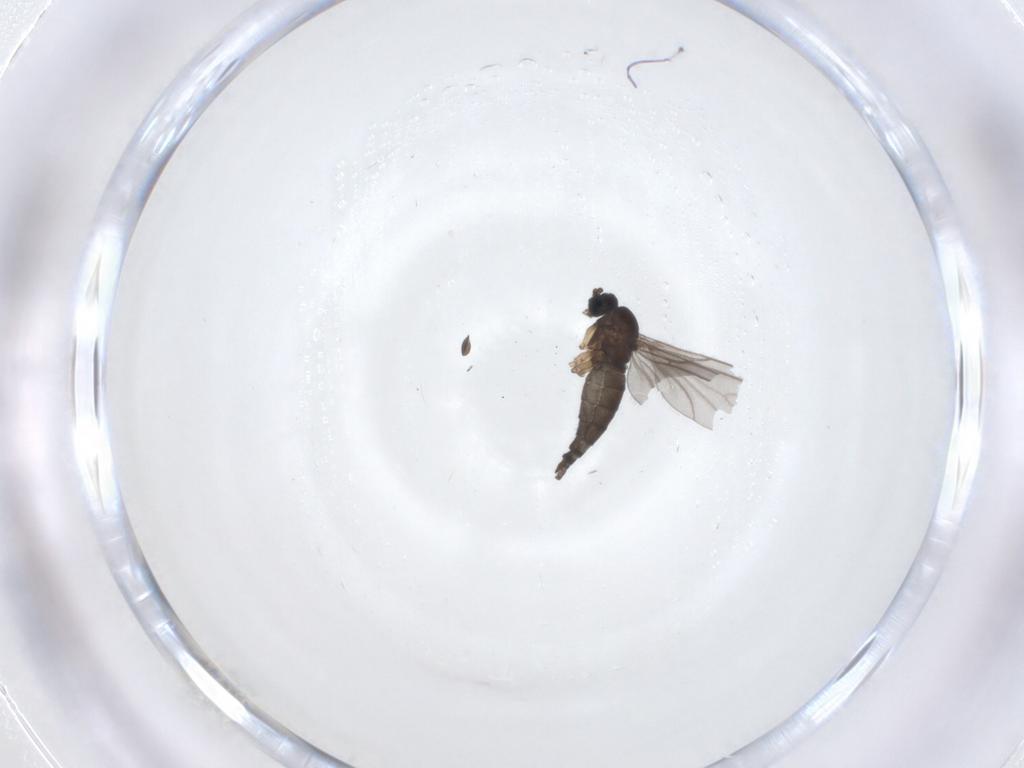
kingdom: Animalia
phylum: Arthropoda
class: Insecta
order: Diptera
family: Sciaridae
